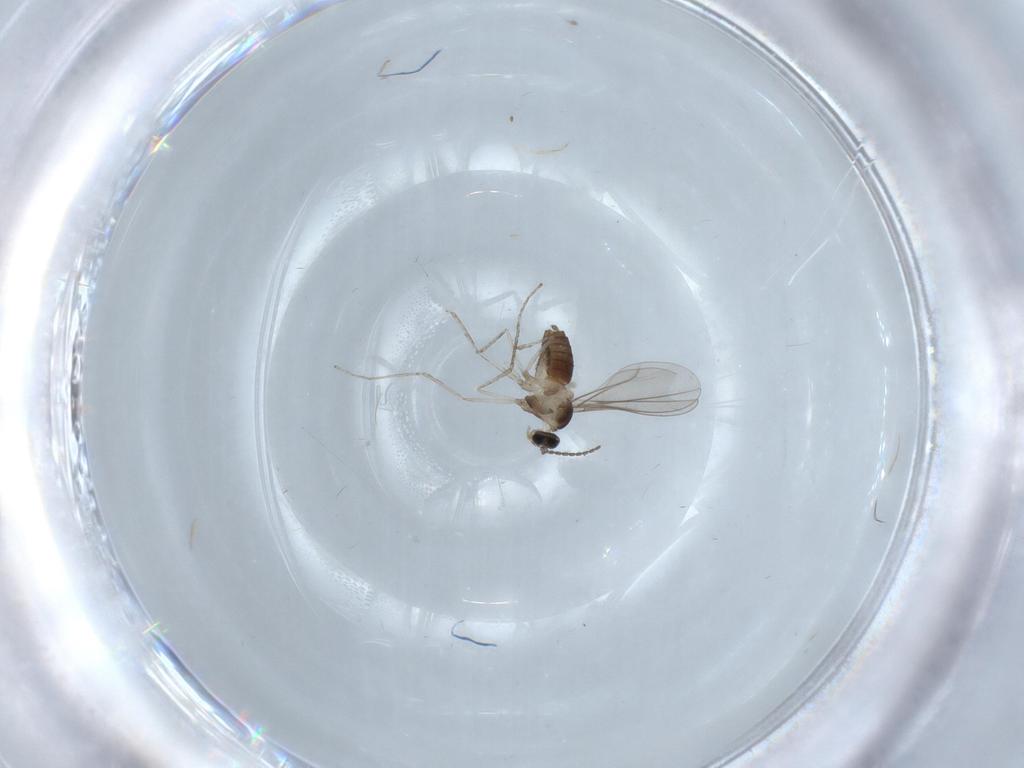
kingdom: Animalia
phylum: Arthropoda
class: Insecta
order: Diptera
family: Cecidomyiidae
